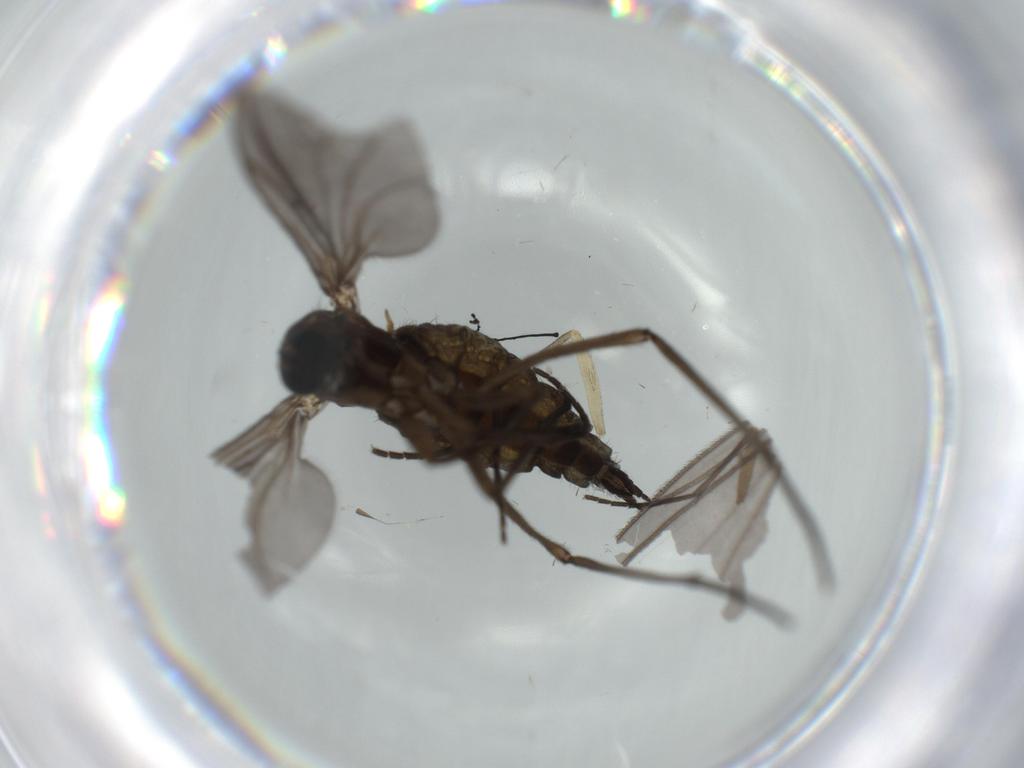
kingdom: Animalia
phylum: Arthropoda
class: Insecta
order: Diptera
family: Sciaridae
